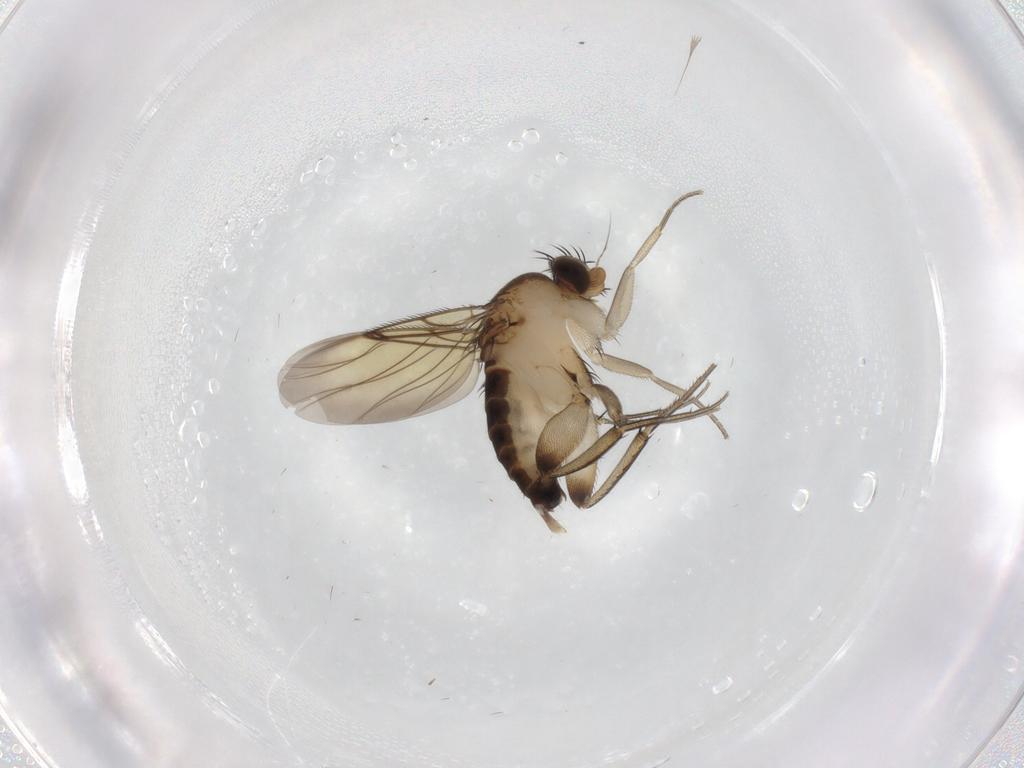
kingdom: Animalia
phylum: Arthropoda
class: Insecta
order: Diptera
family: Phoridae
